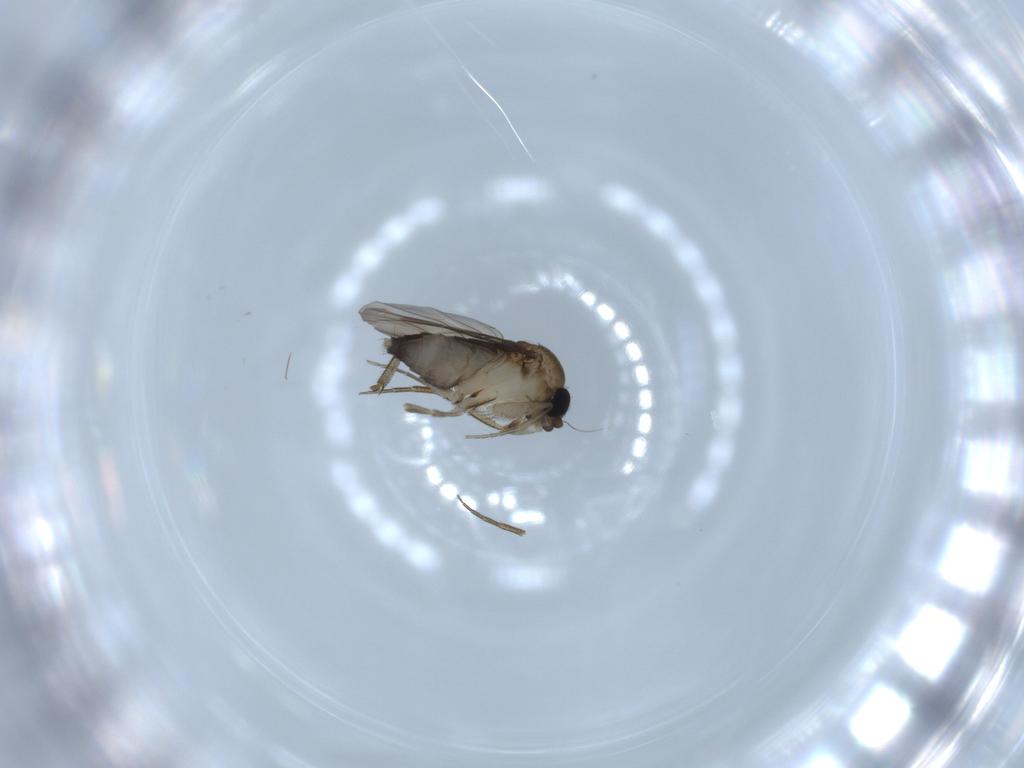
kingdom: Animalia
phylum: Arthropoda
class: Insecta
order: Diptera
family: Phoridae
